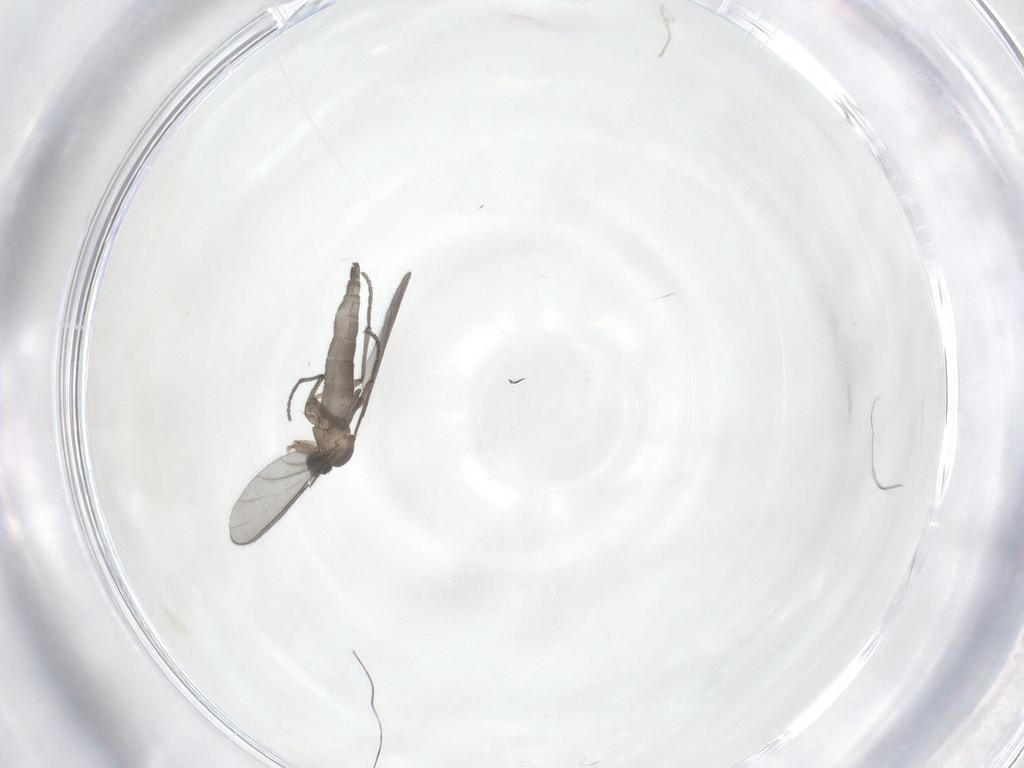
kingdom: Animalia
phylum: Arthropoda
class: Insecta
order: Diptera
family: Sciaridae
